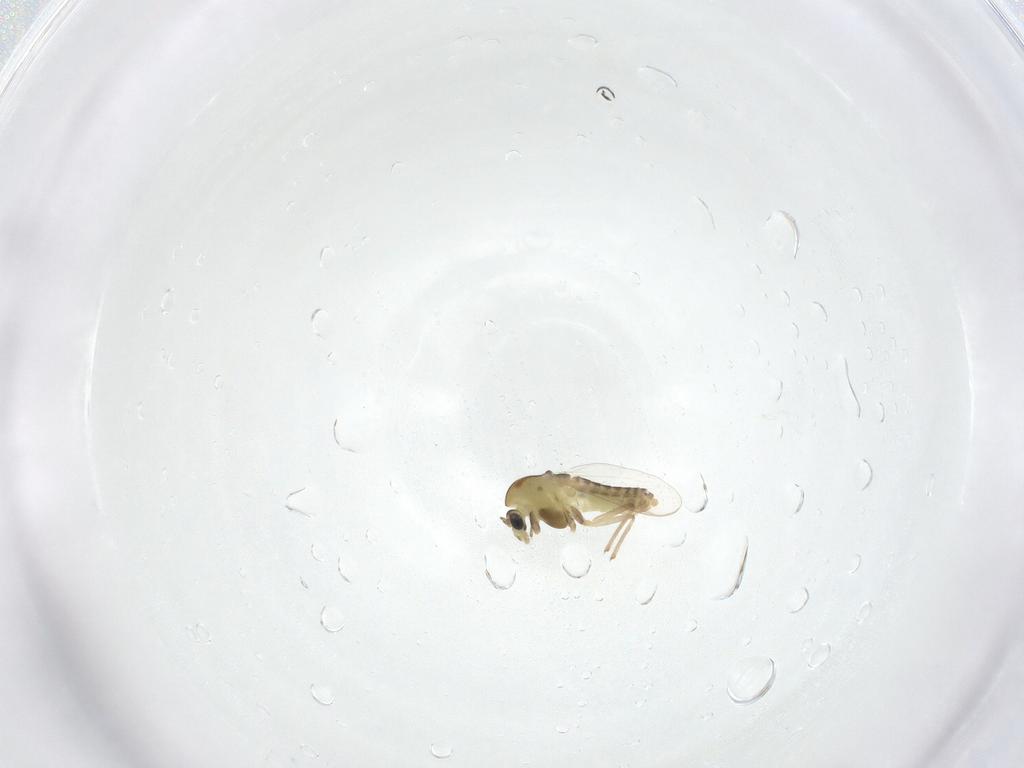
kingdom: Animalia
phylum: Arthropoda
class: Insecta
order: Diptera
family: Chironomidae
